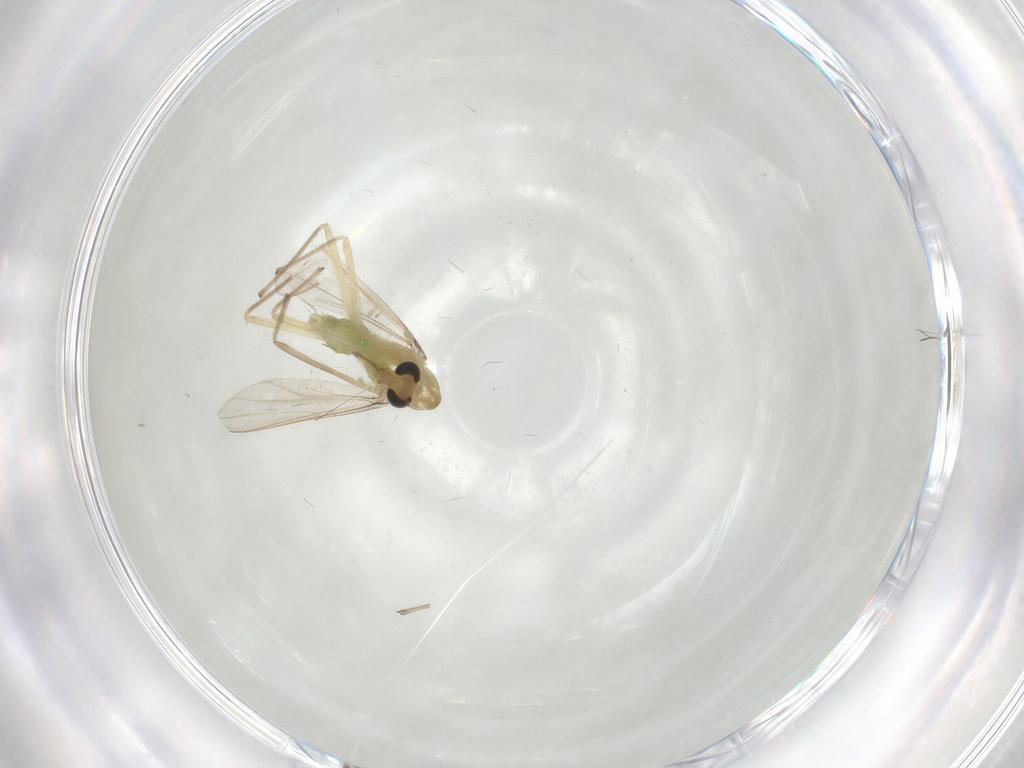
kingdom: Animalia
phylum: Arthropoda
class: Insecta
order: Diptera
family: Chironomidae
